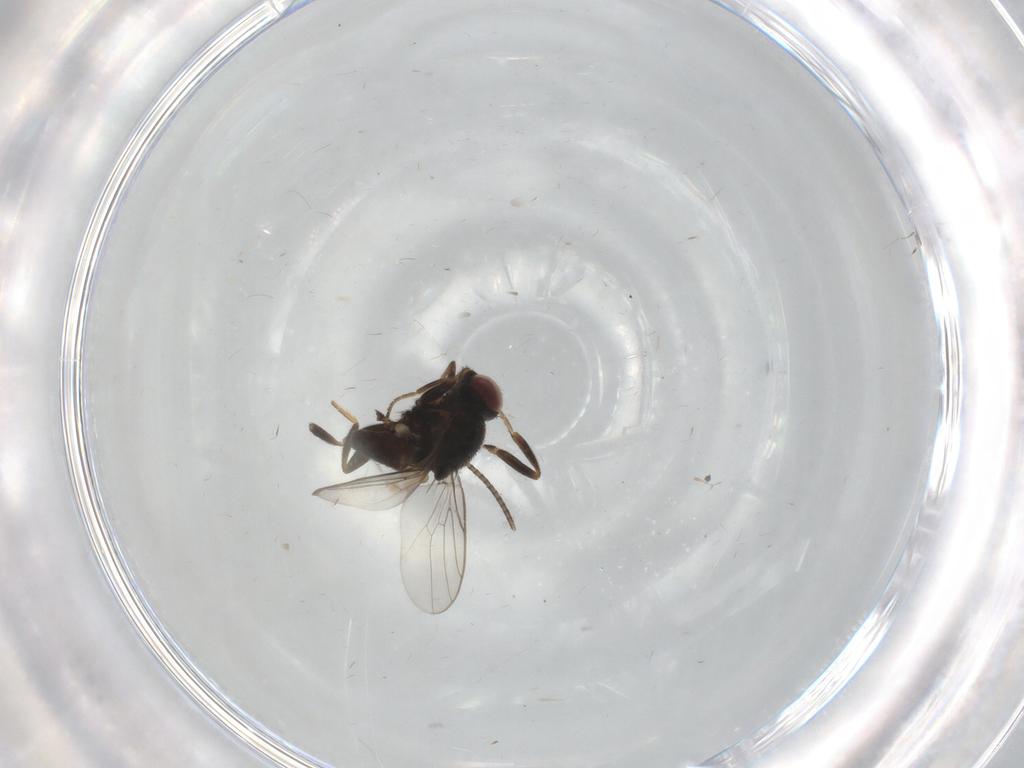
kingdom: Animalia
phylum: Arthropoda
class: Insecta
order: Diptera
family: Chloropidae
